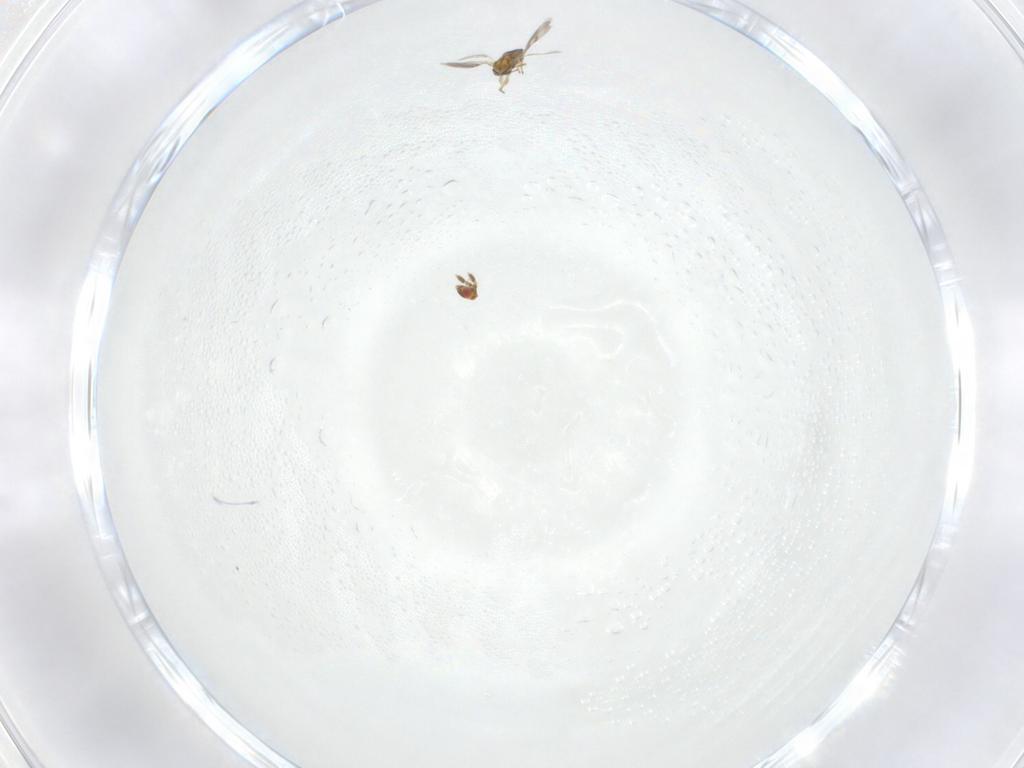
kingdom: Animalia
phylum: Arthropoda
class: Insecta
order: Hymenoptera
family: Eulophidae
